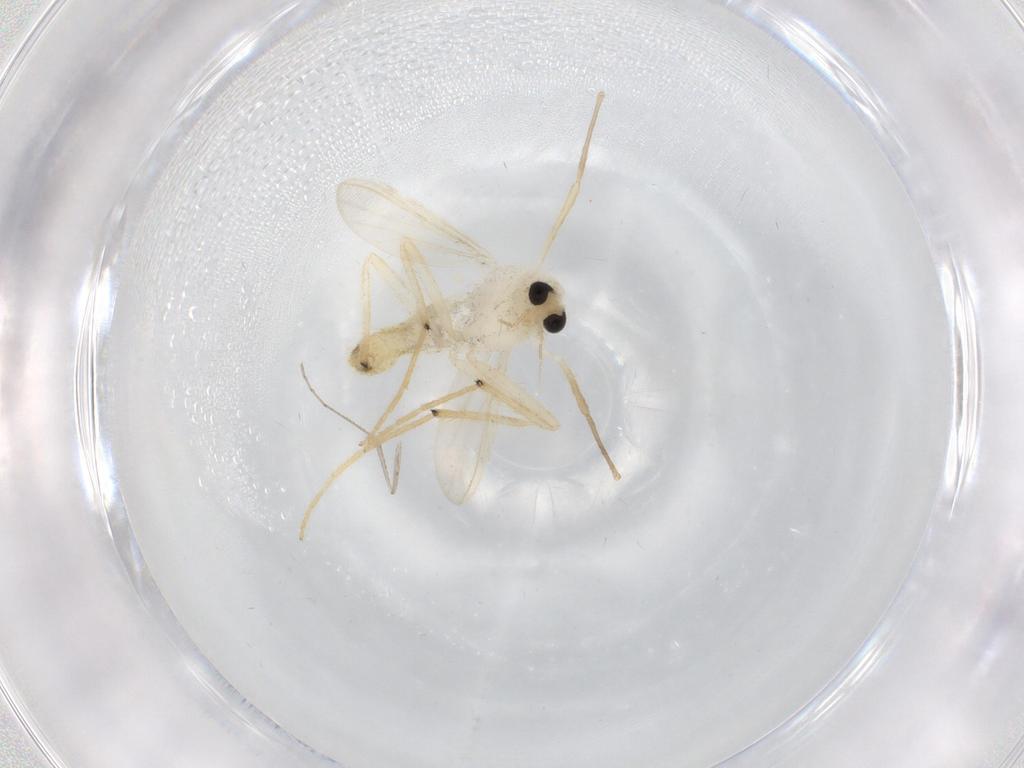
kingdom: Animalia
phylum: Arthropoda
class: Insecta
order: Diptera
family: Chironomidae
